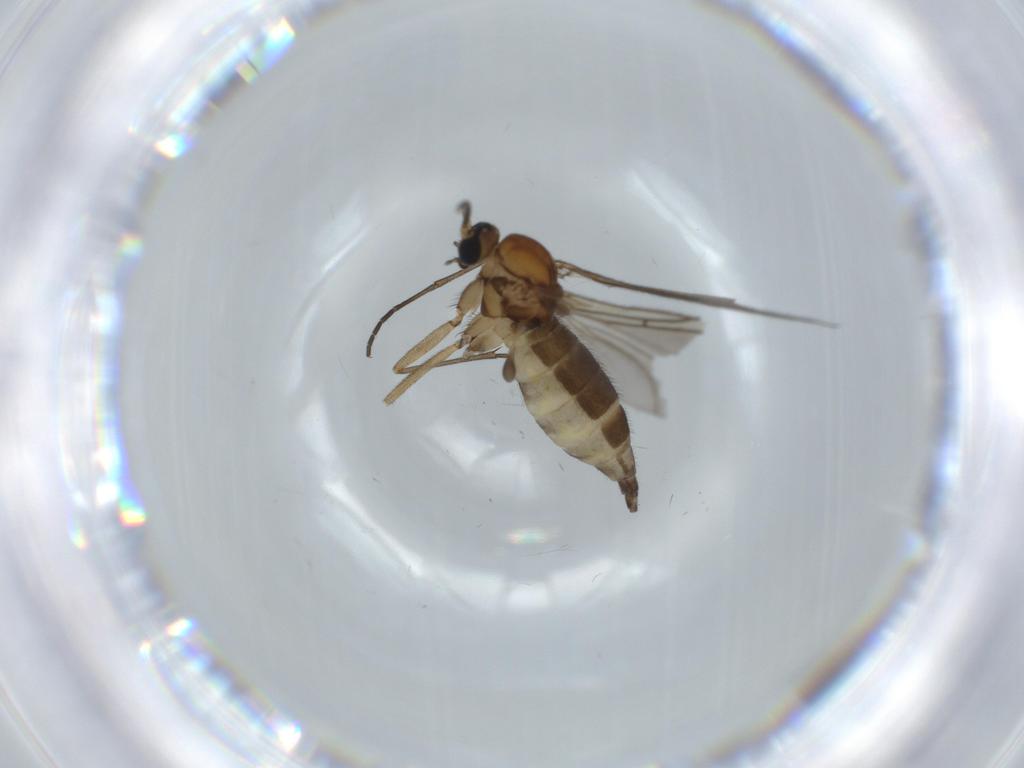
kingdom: Animalia
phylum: Arthropoda
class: Insecta
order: Diptera
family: Sciaridae
